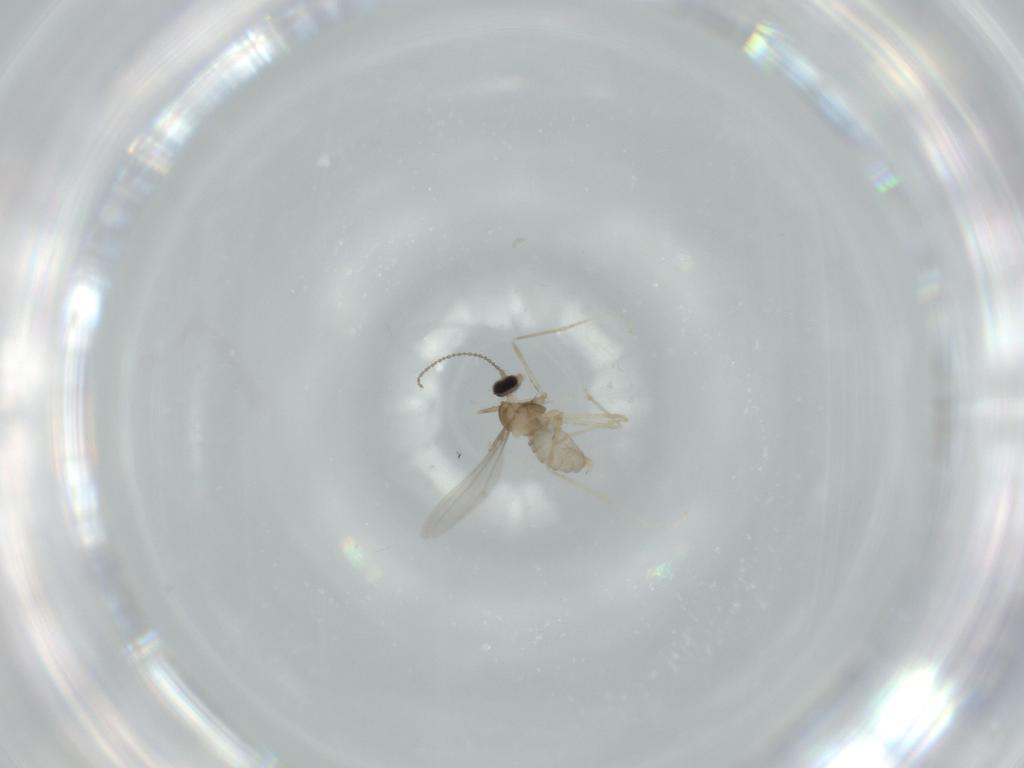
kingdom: Animalia
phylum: Arthropoda
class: Insecta
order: Diptera
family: Cecidomyiidae
